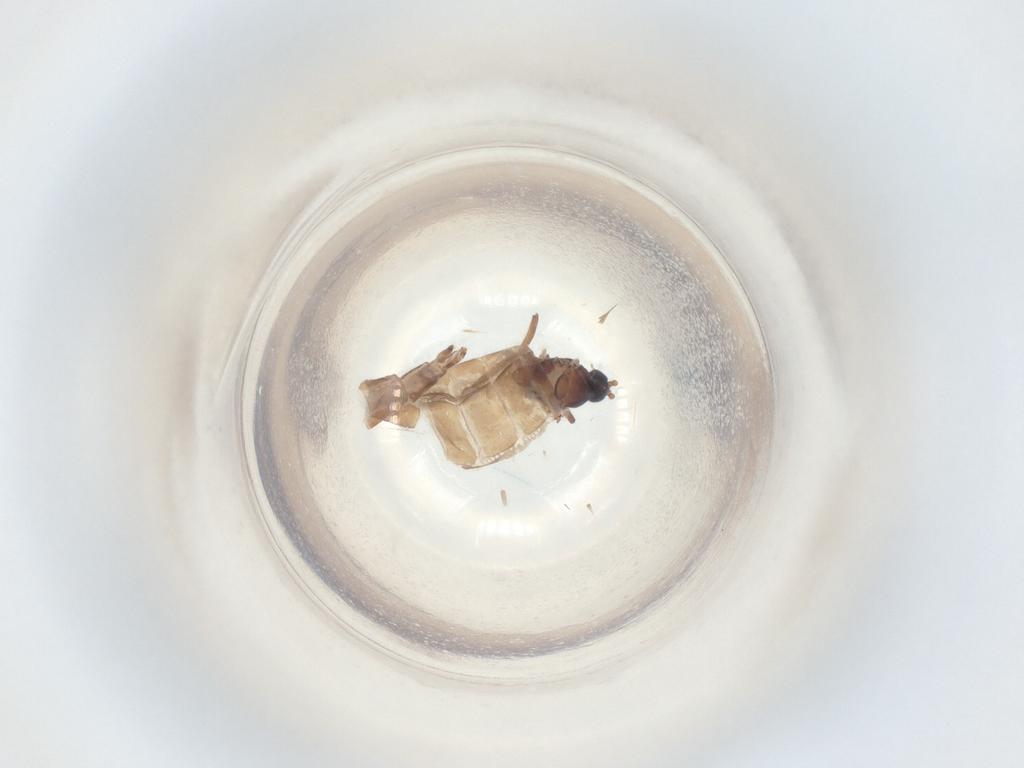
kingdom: Animalia
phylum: Arthropoda
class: Insecta
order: Diptera
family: Sciaridae
